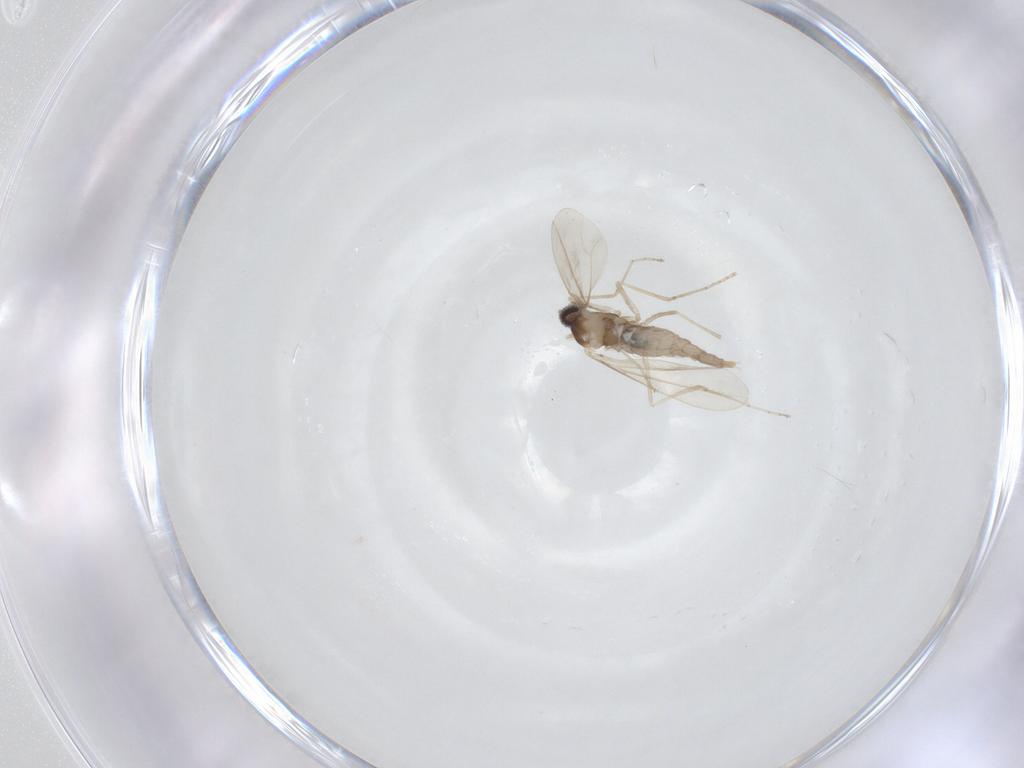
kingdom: Animalia
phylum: Arthropoda
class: Insecta
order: Diptera
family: Cecidomyiidae
